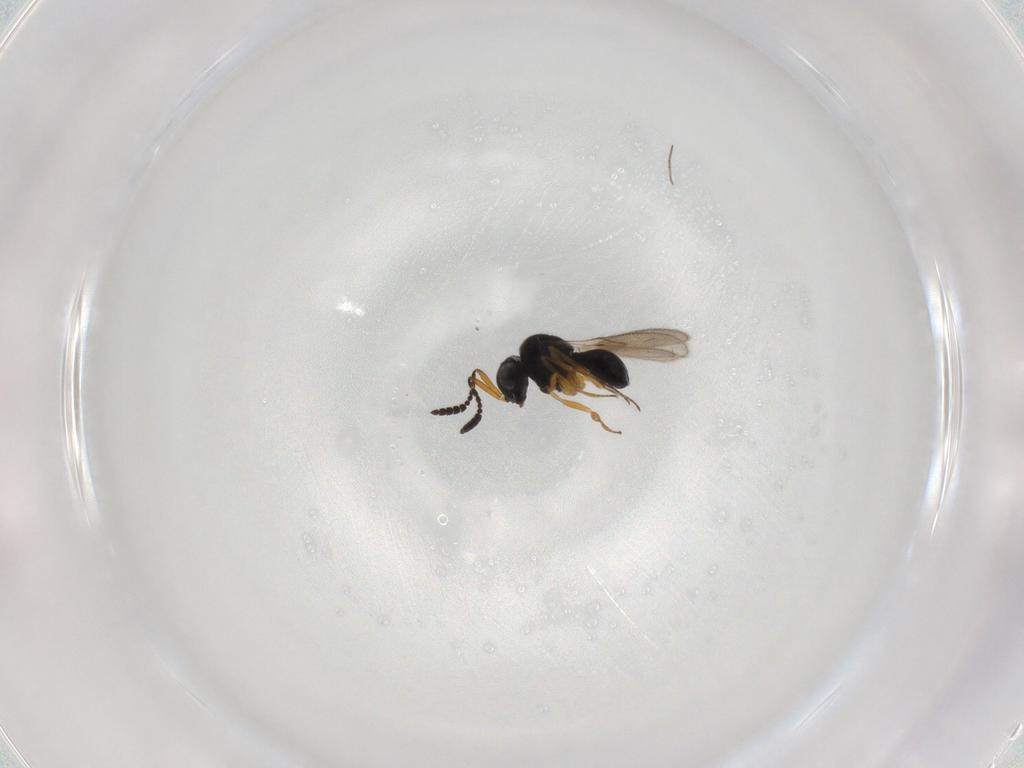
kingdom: Animalia
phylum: Arthropoda
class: Insecta
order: Hymenoptera
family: Scelionidae
